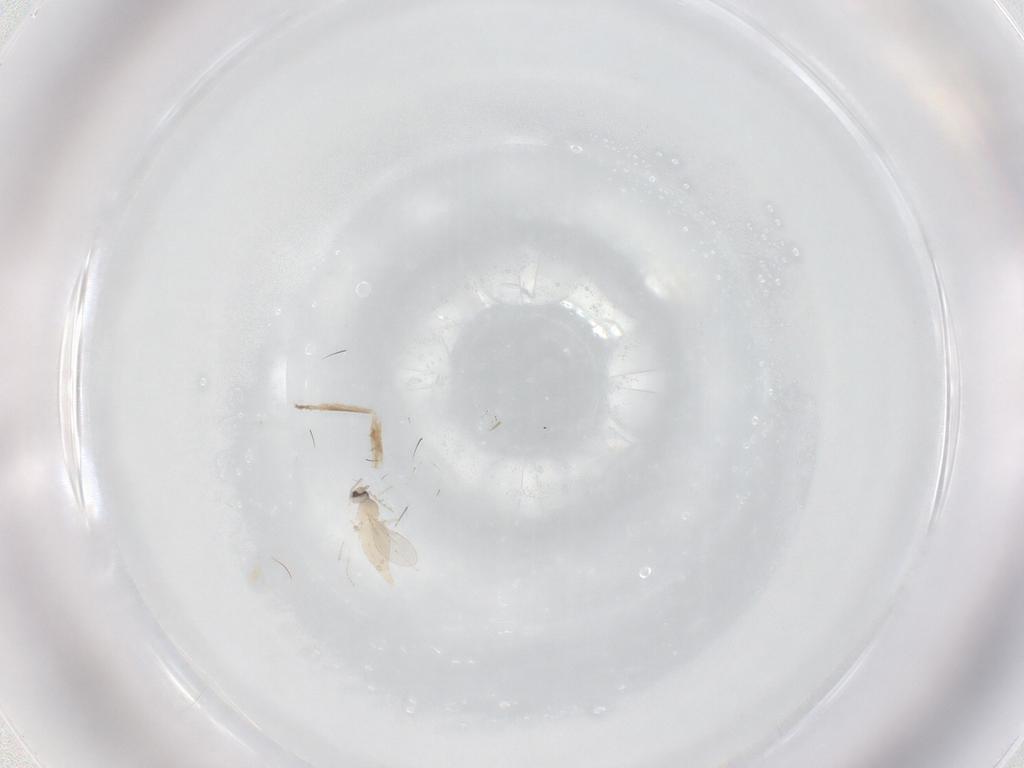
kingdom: Animalia
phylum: Arthropoda
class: Insecta
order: Diptera
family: Cecidomyiidae
